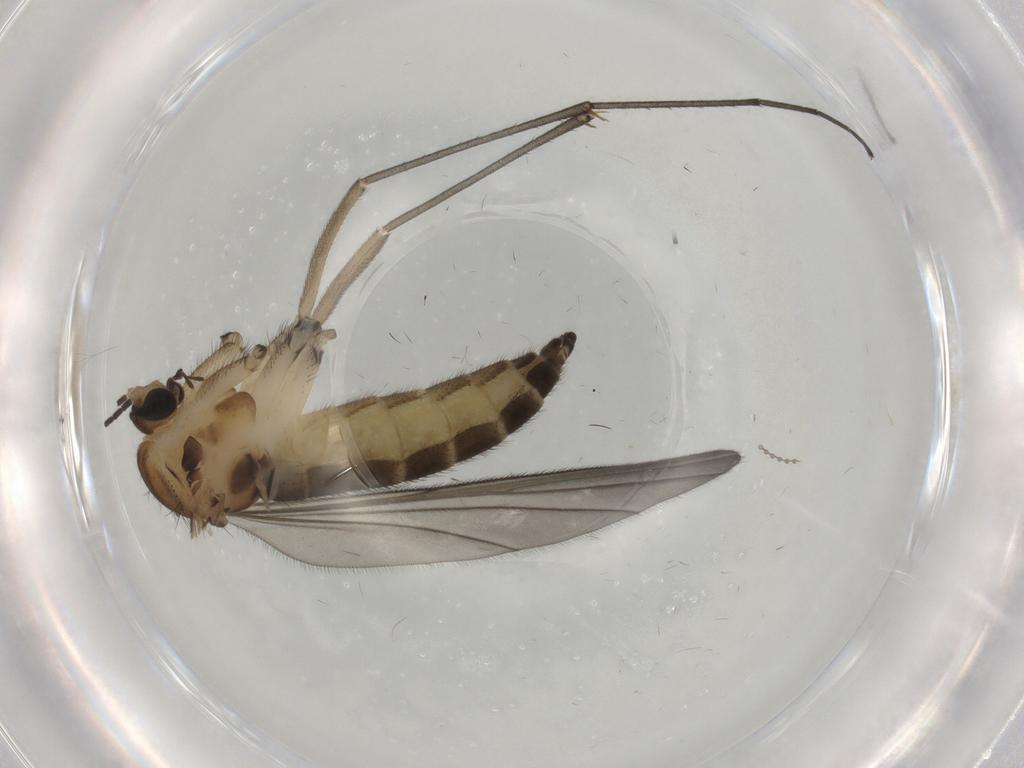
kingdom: Animalia
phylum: Arthropoda
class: Insecta
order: Diptera
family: Sciaridae
